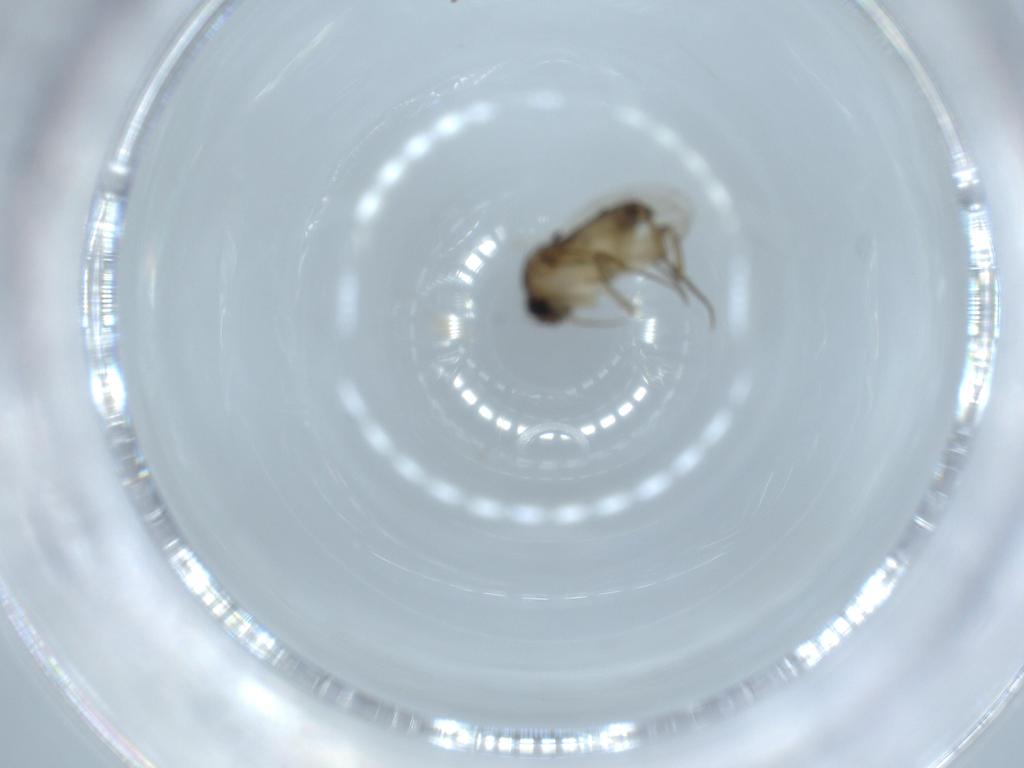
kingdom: Animalia
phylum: Arthropoda
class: Insecta
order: Diptera
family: Phoridae
